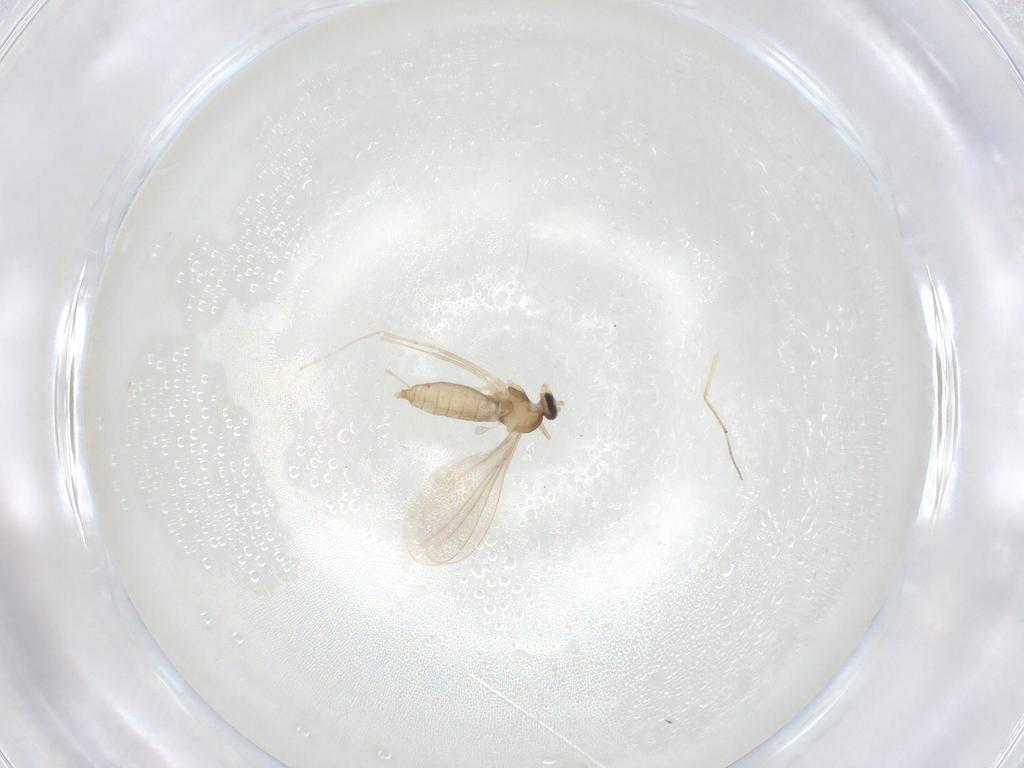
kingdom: Animalia
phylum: Arthropoda
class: Insecta
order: Diptera
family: Cecidomyiidae
